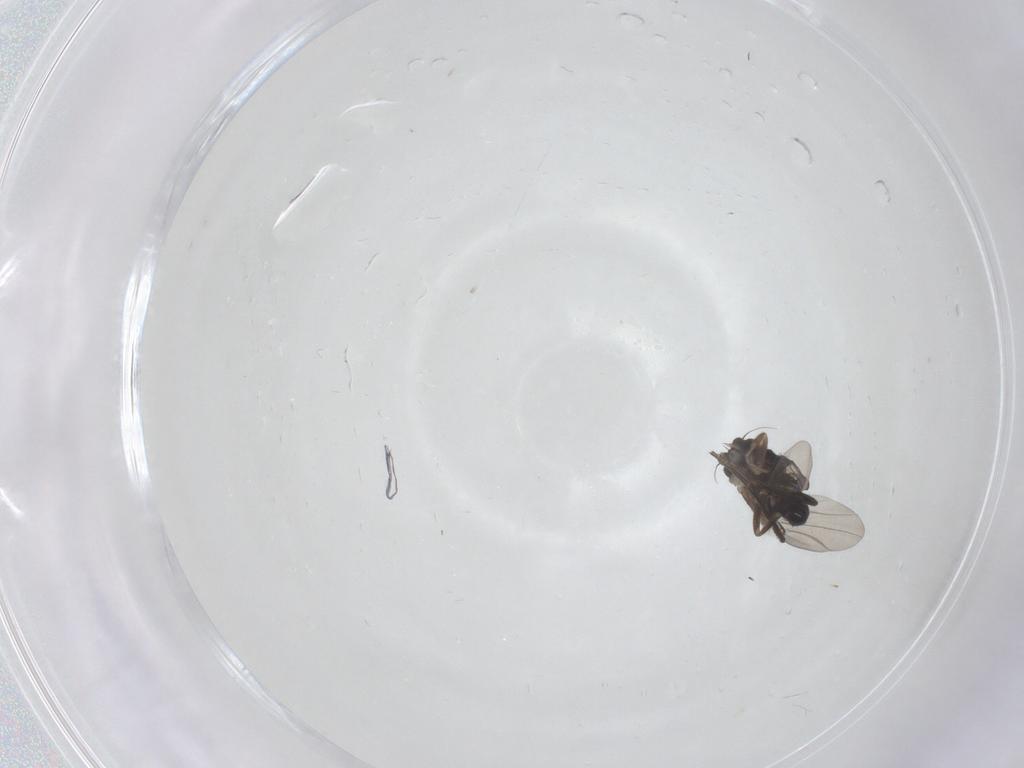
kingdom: Animalia
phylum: Arthropoda
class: Insecta
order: Diptera
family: Phoridae
